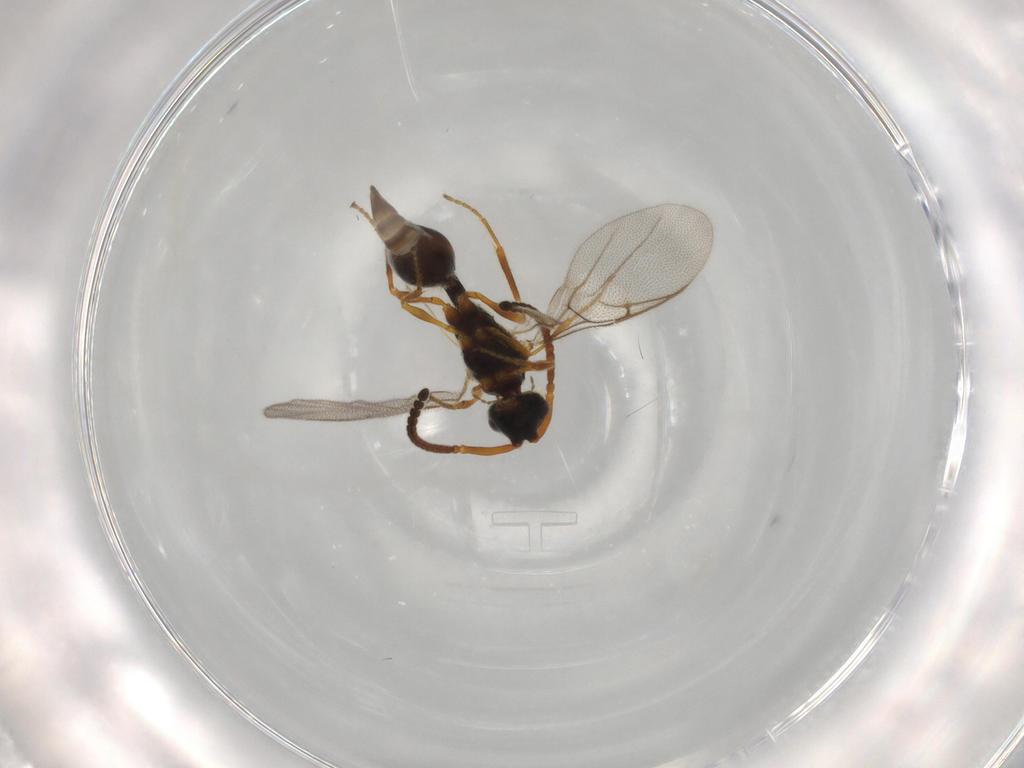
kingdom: Animalia
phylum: Arthropoda
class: Insecta
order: Hymenoptera
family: Diapriidae
